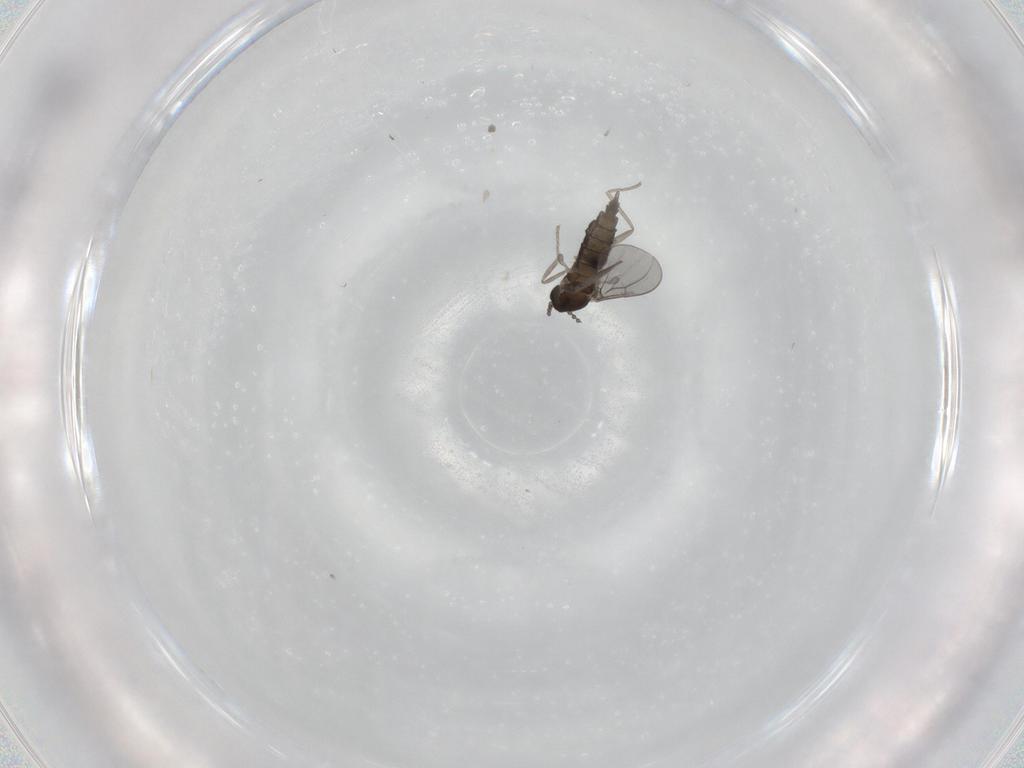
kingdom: Animalia
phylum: Arthropoda
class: Insecta
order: Diptera
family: Cecidomyiidae
